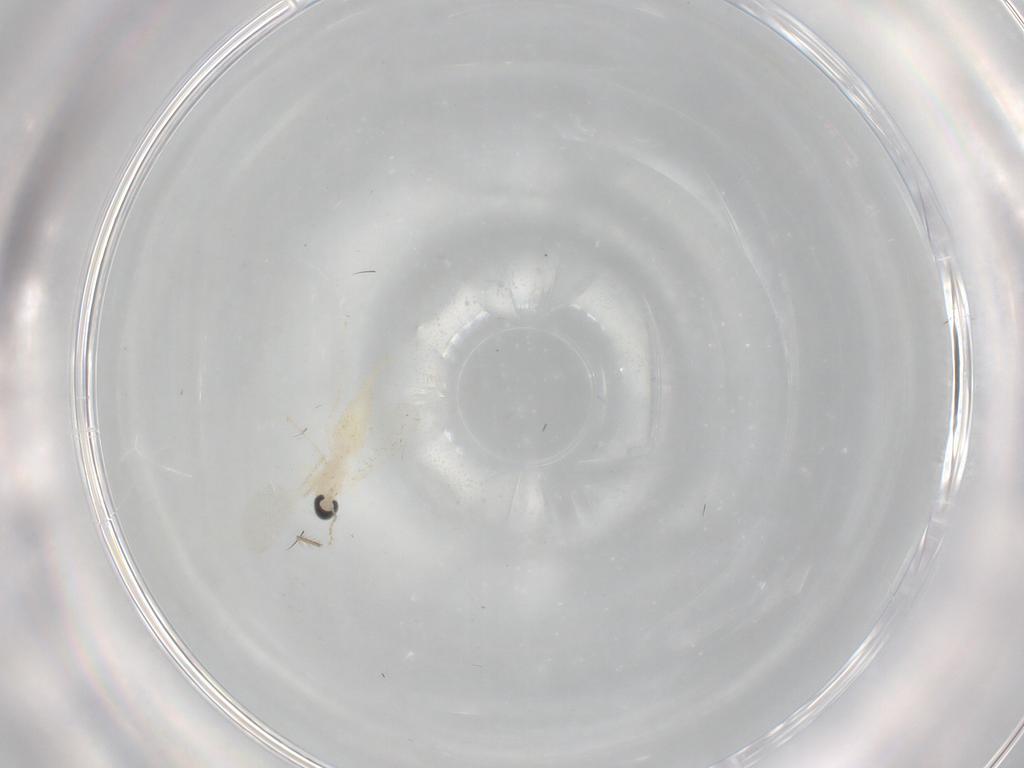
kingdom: Animalia
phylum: Arthropoda
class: Insecta
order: Diptera
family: Cecidomyiidae
